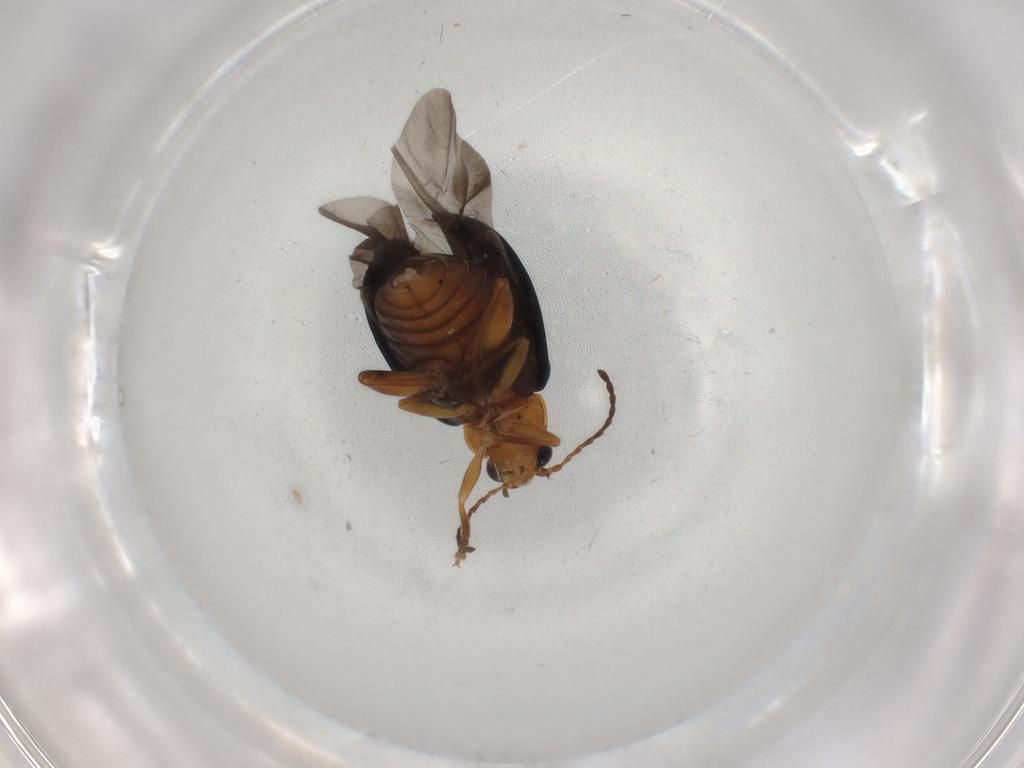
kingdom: Animalia
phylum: Arthropoda
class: Insecta
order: Coleoptera
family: Chrysomelidae
